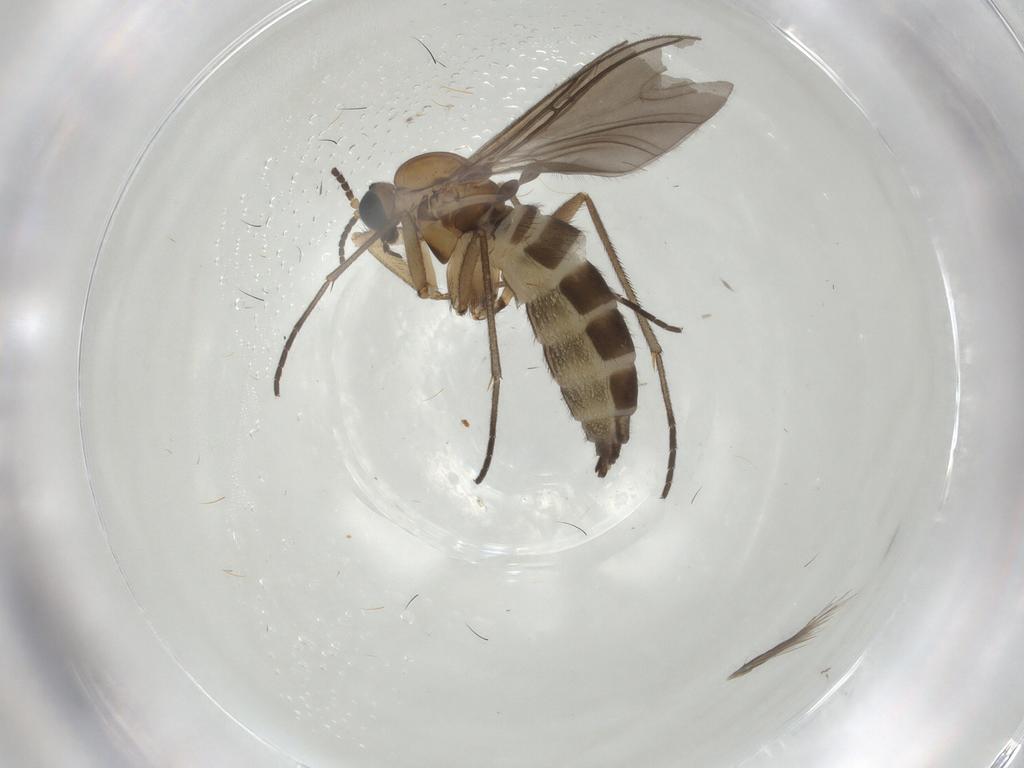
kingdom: Animalia
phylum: Arthropoda
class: Insecta
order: Diptera
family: Sciaridae
